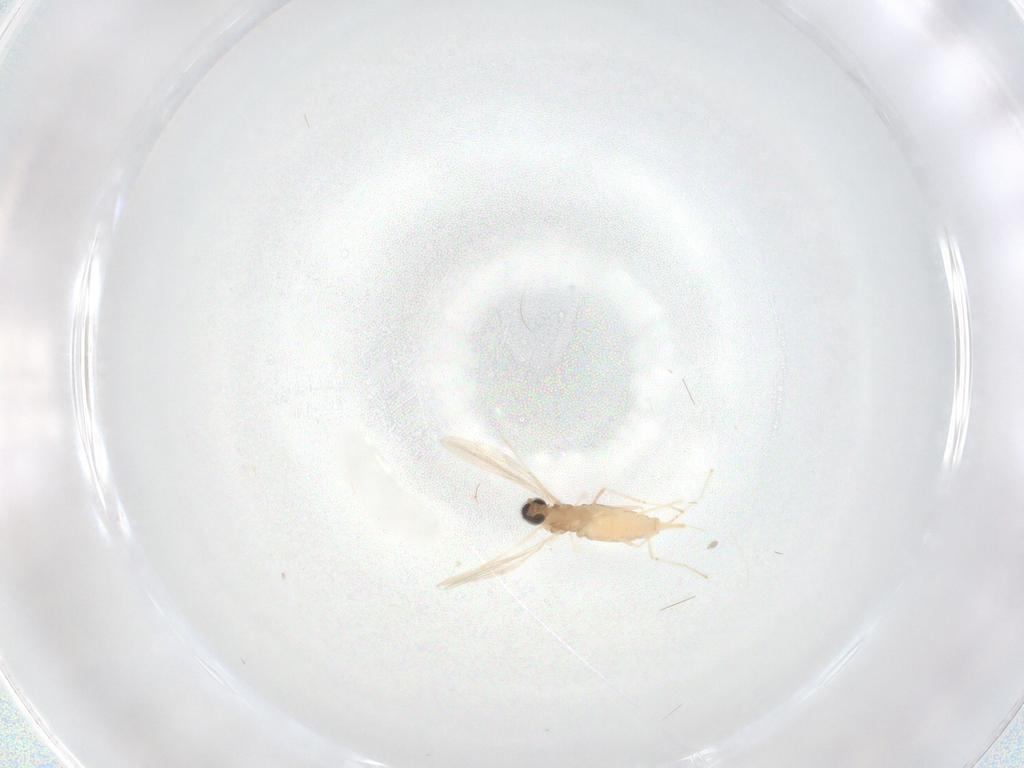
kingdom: Animalia
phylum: Arthropoda
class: Insecta
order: Diptera
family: Cecidomyiidae
